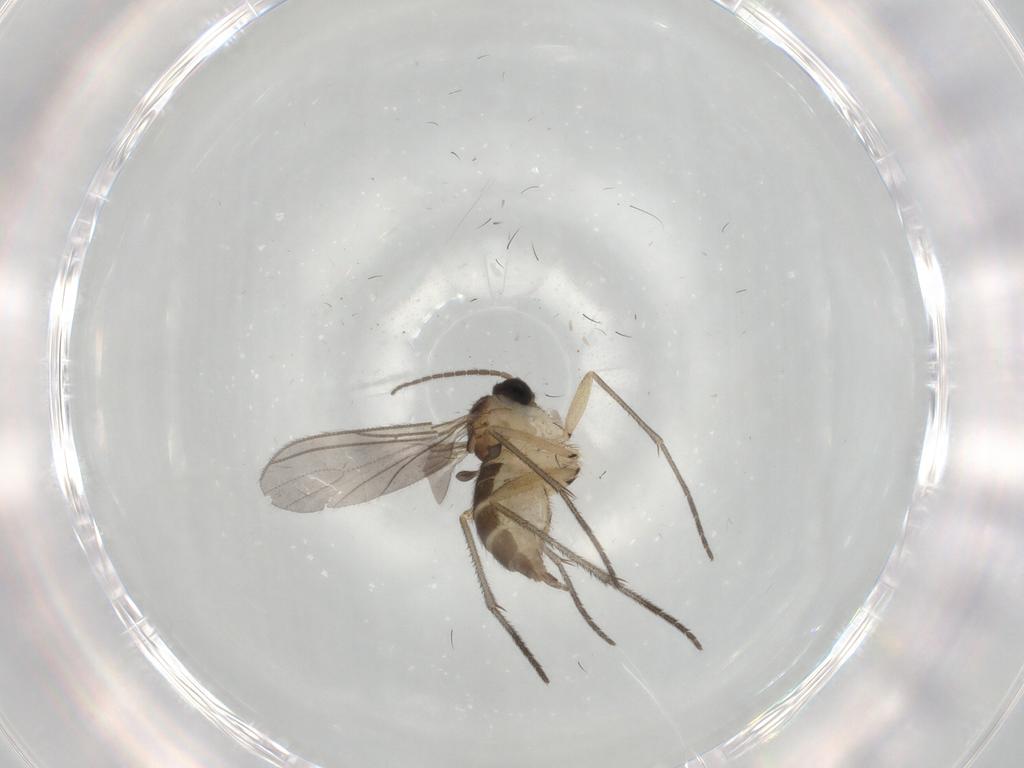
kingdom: Animalia
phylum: Arthropoda
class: Insecta
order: Diptera
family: Sciaridae
